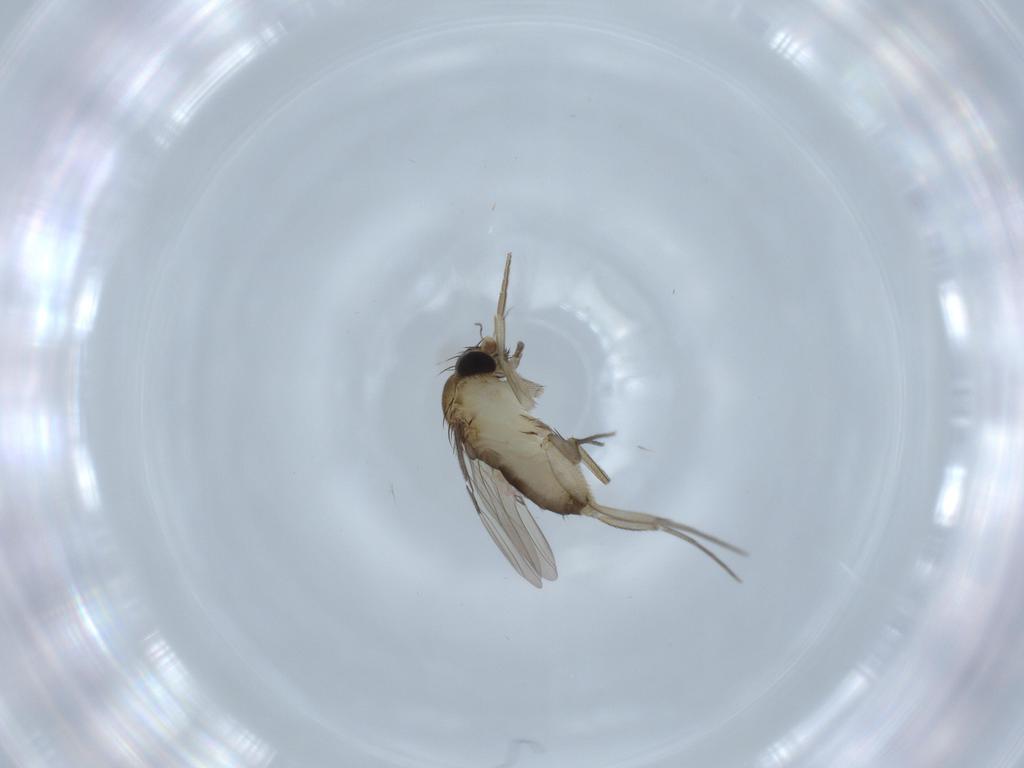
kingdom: Animalia
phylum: Arthropoda
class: Insecta
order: Diptera
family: Phoridae
